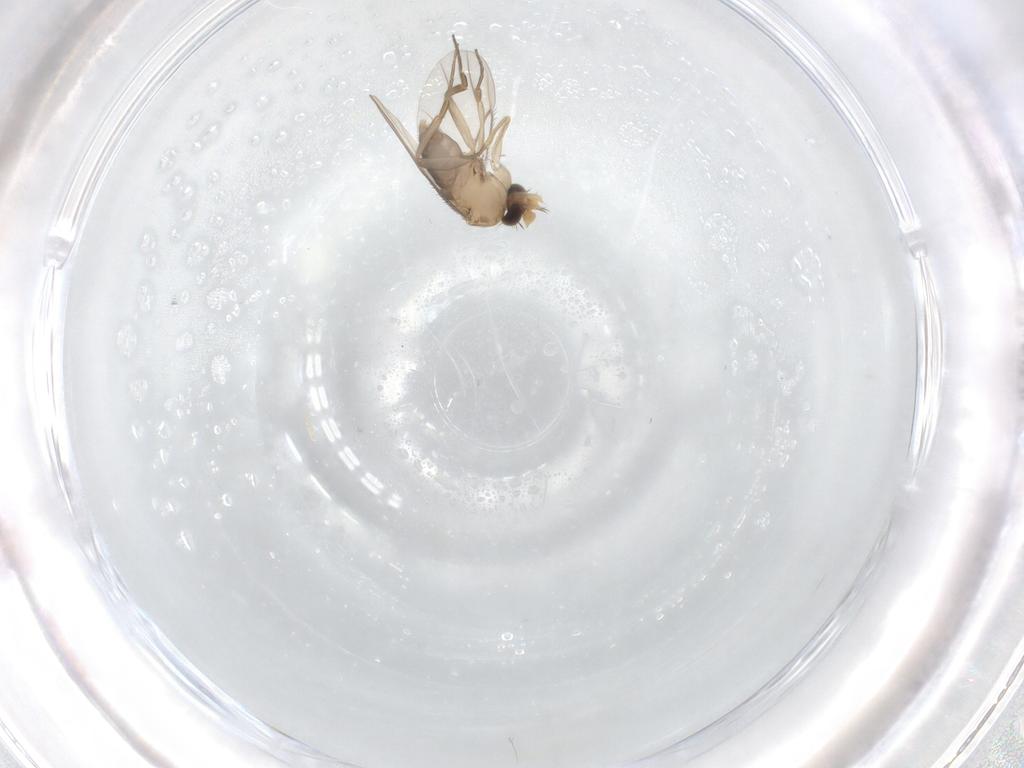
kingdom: Animalia
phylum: Arthropoda
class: Insecta
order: Diptera
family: Phoridae
